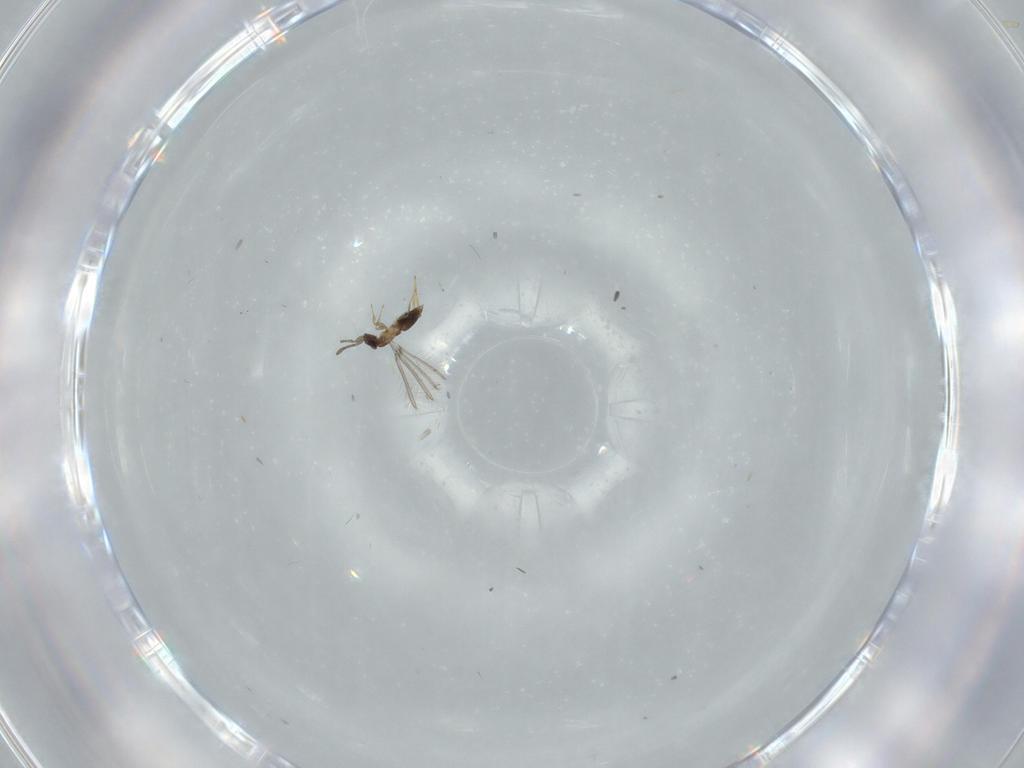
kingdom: Animalia
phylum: Arthropoda
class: Insecta
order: Hymenoptera
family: Mymaridae
